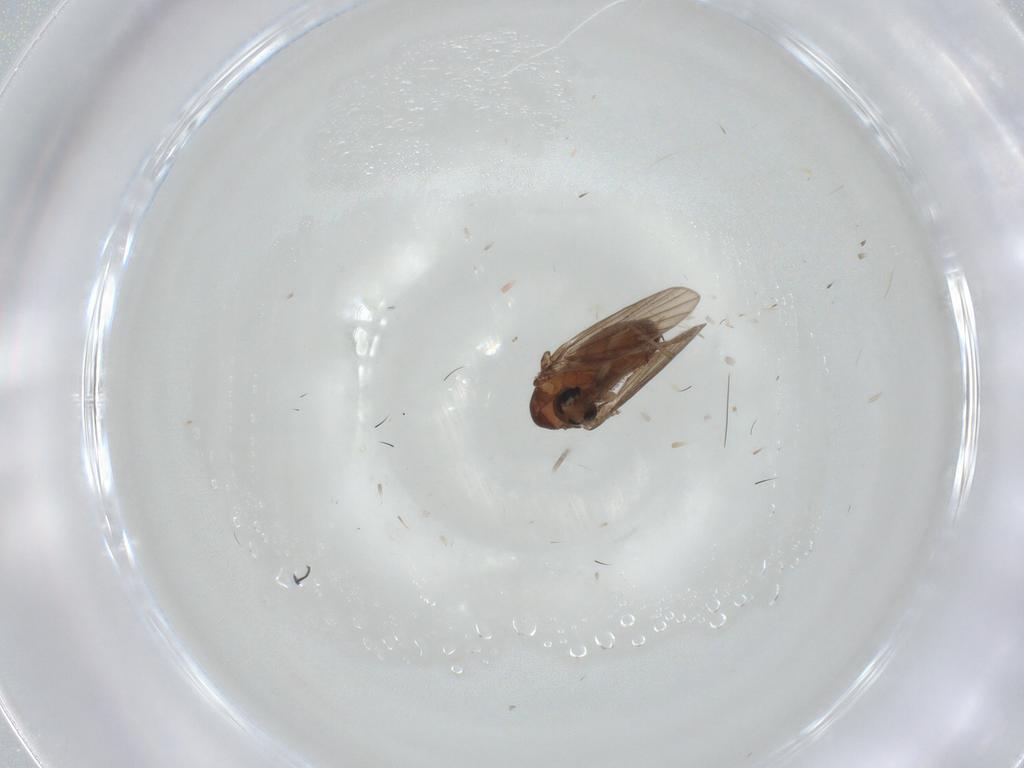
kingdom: Animalia
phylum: Arthropoda
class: Insecta
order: Diptera
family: Psychodidae
